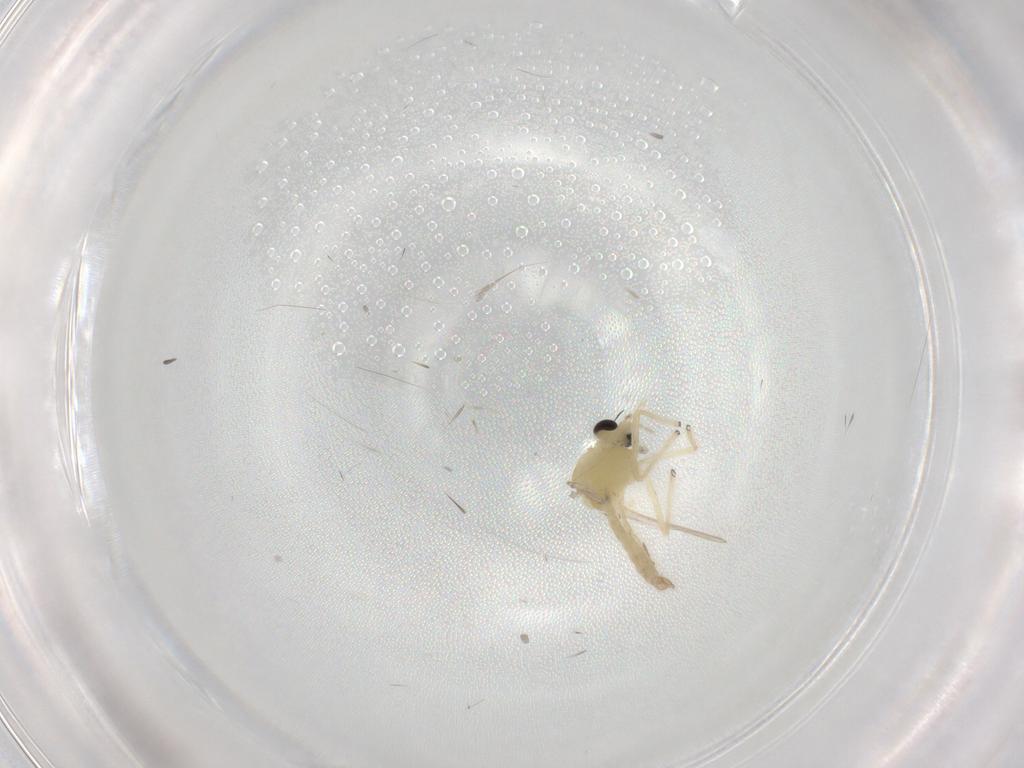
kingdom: Animalia
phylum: Arthropoda
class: Insecta
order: Diptera
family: Chironomidae
